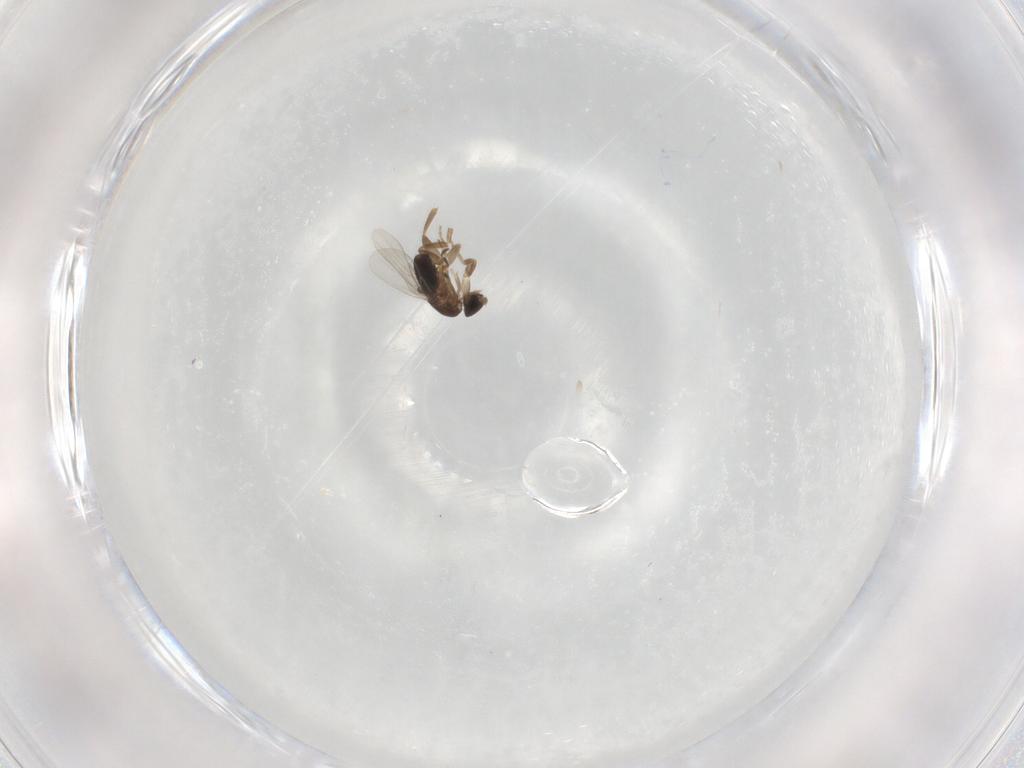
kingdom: Animalia
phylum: Arthropoda
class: Insecta
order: Diptera
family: Phoridae
